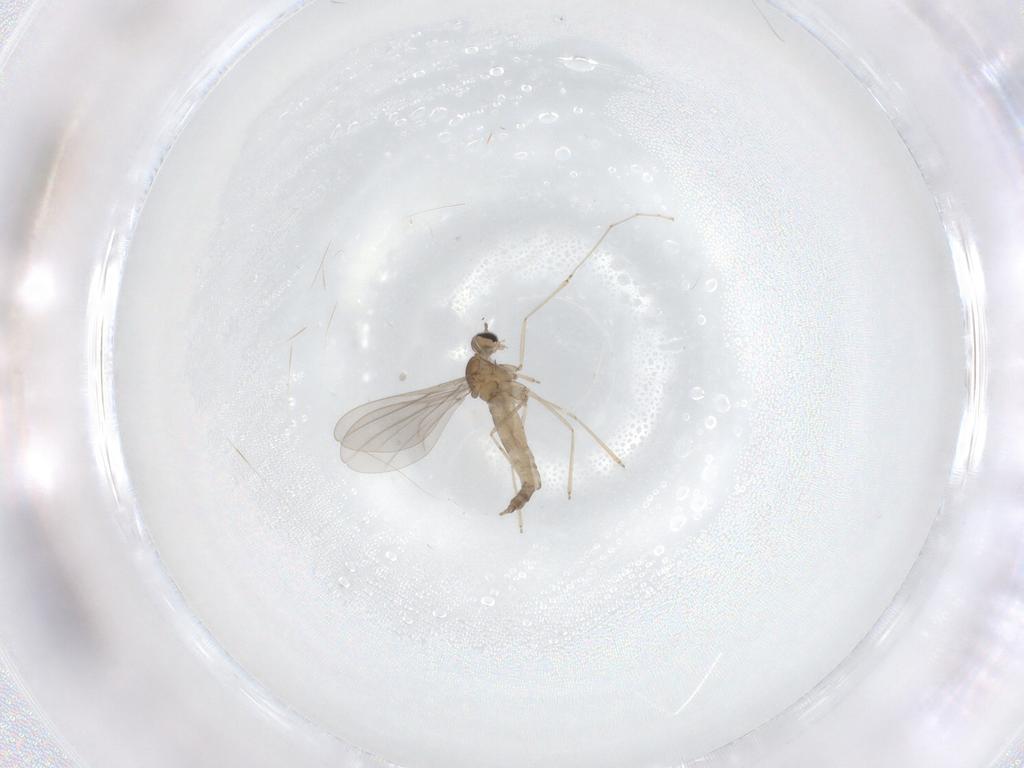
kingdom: Animalia
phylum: Arthropoda
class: Insecta
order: Diptera
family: Cecidomyiidae
